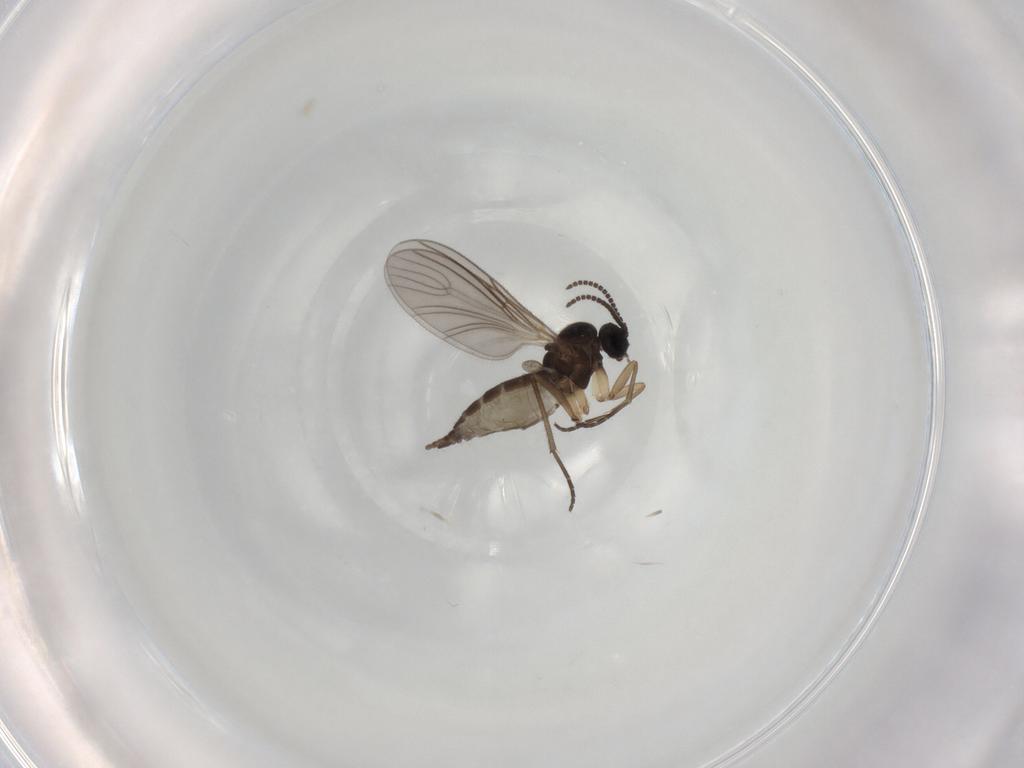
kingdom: Animalia
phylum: Arthropoda
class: Insecta
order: Diptera
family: Sciaridae
